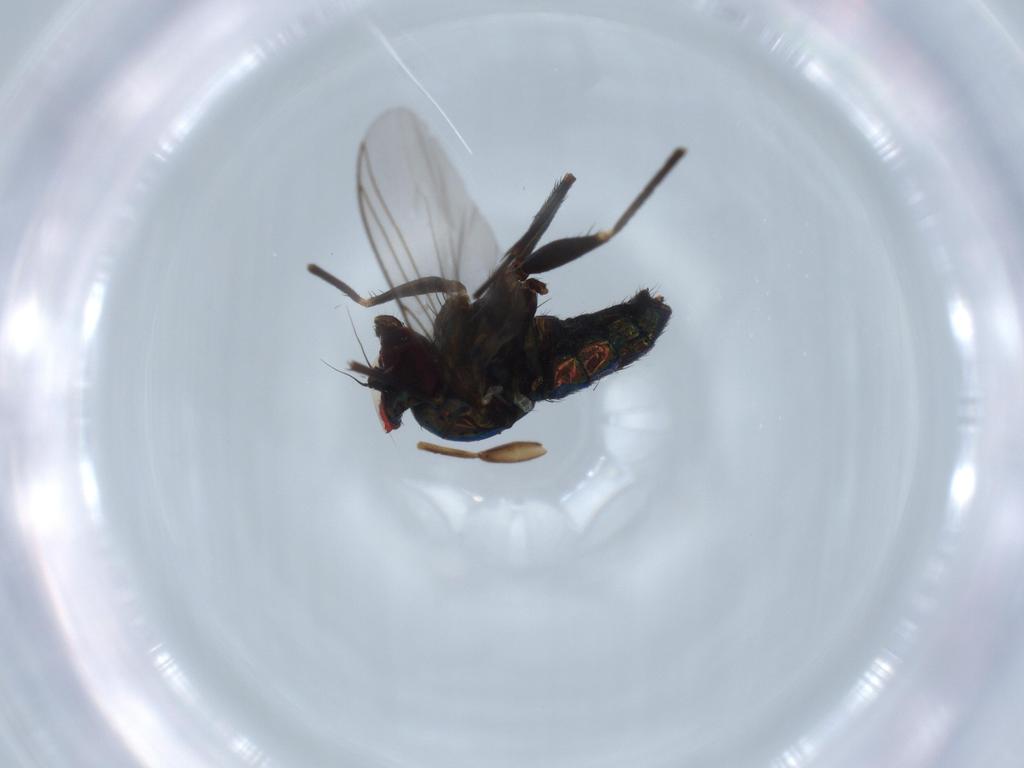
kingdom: Animalia
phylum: Arthropoda
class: Insecta
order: Diptera
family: Dolichopodidae
